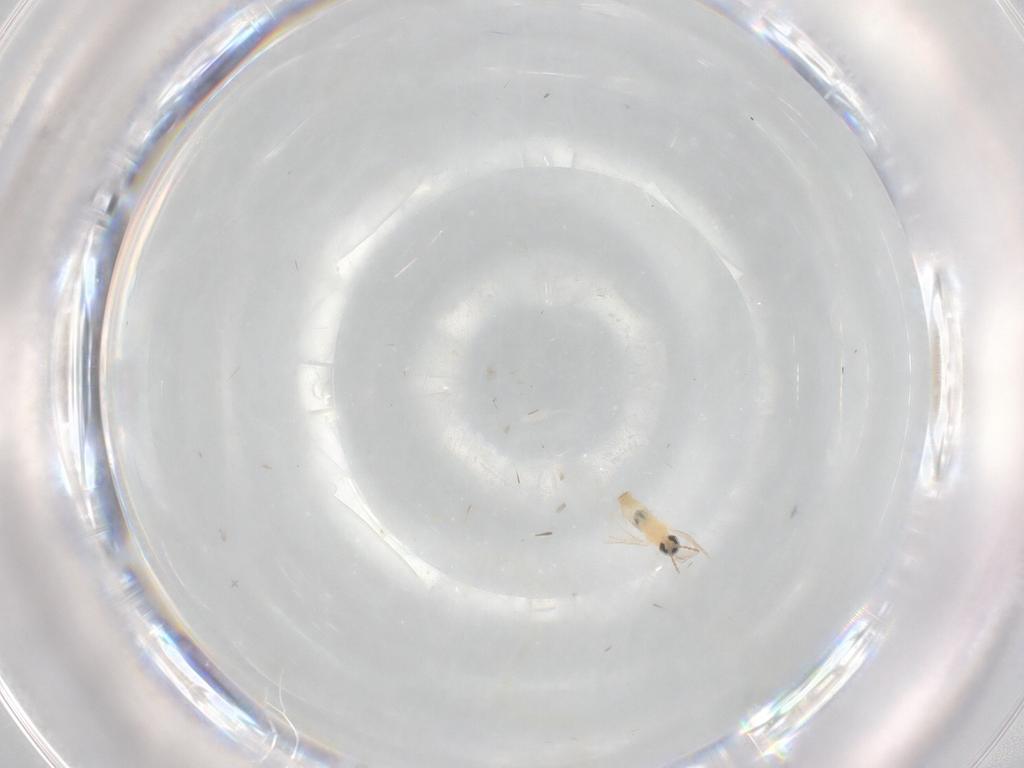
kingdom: Animalia
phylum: Arthropoda
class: Insecta
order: Diptera
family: Cecidomyiidae
